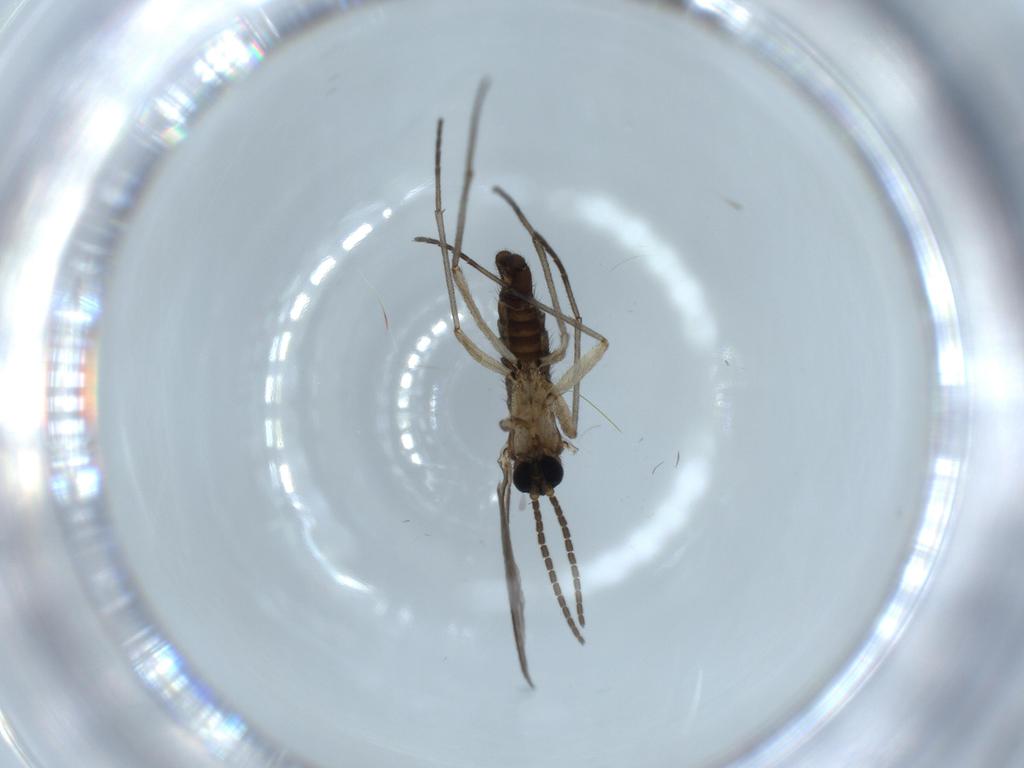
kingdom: Animalia
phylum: Arthropoda
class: Insecta
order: Diptera
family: Sciaridae
